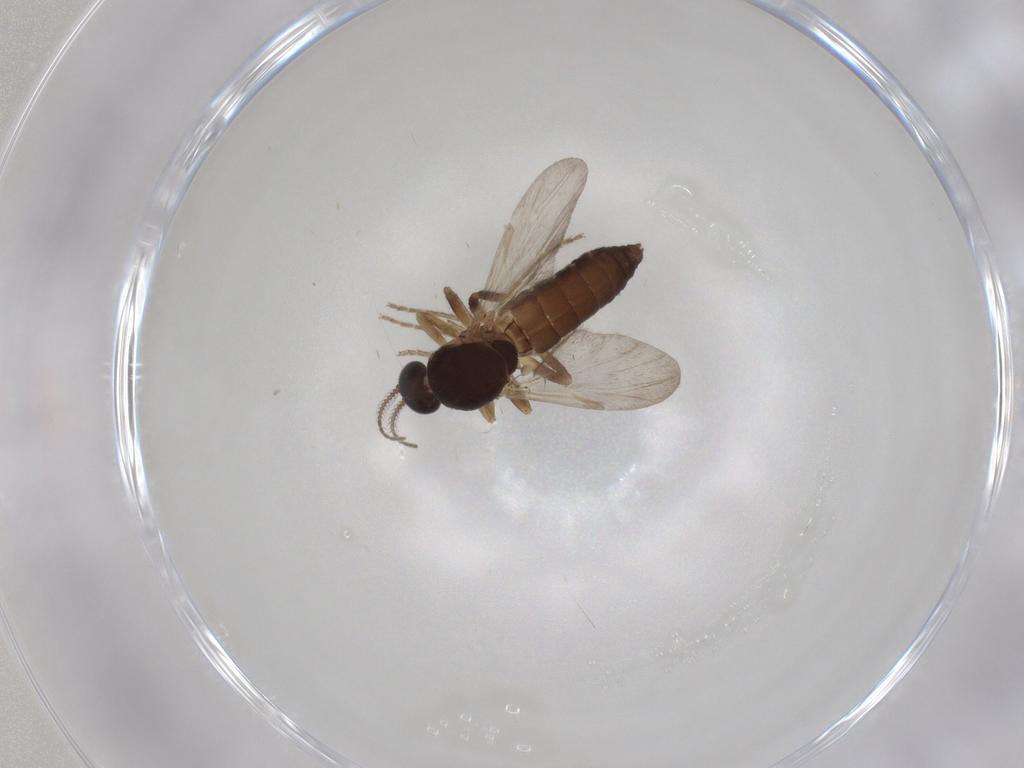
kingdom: Animalia
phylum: Arthropoda
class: Insecta
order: Diptera
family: Ceratopogonidae
